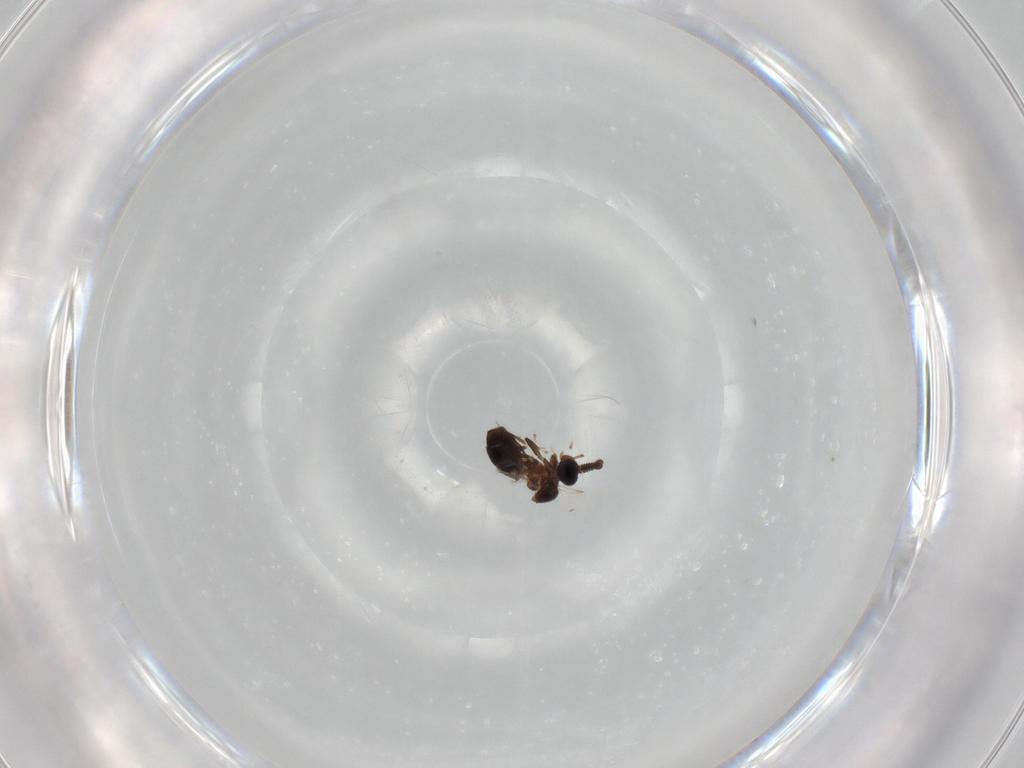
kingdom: Animalia
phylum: Arthropoda
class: Insecta
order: Diptera
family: Scatopsidae
